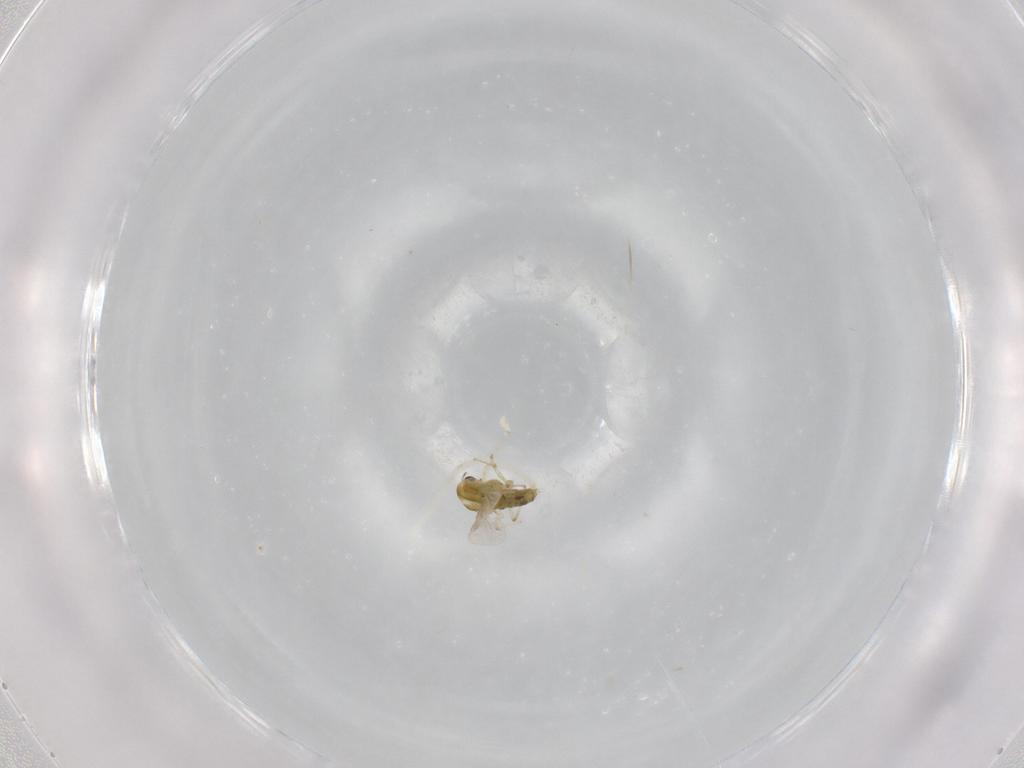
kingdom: Animalia
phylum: Arthropoda
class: Insecta
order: Diptera
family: Chironomidae
